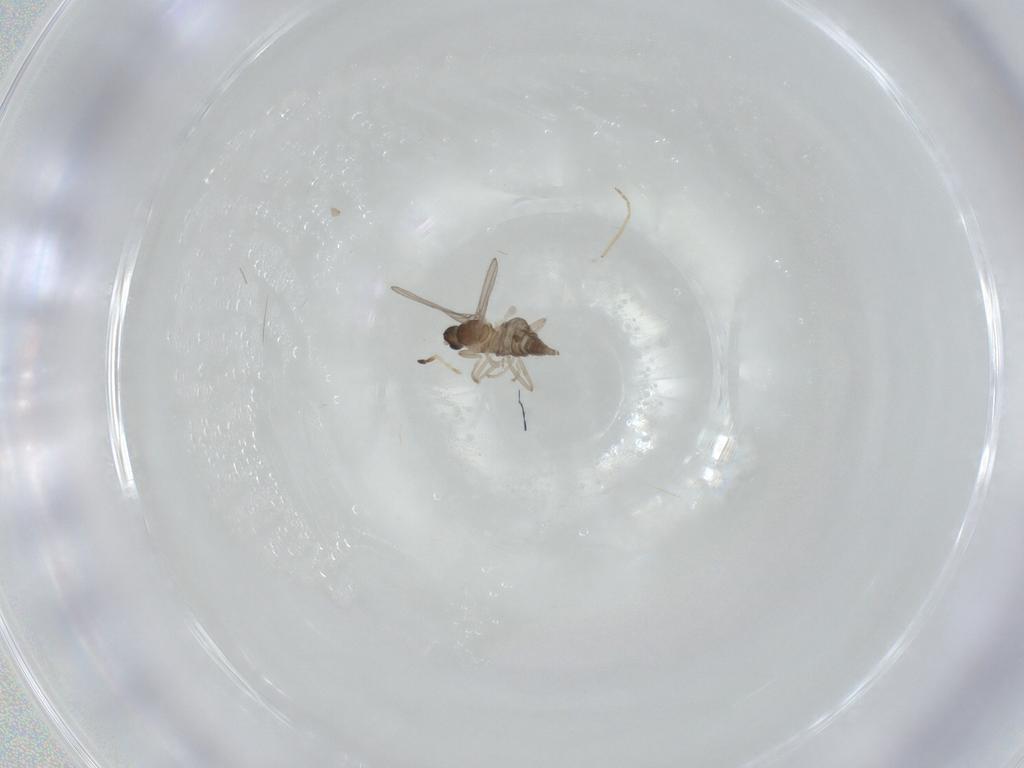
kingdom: Animalia
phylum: Arthropoda
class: Insecta
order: Diptera
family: Cecidomyiidae
